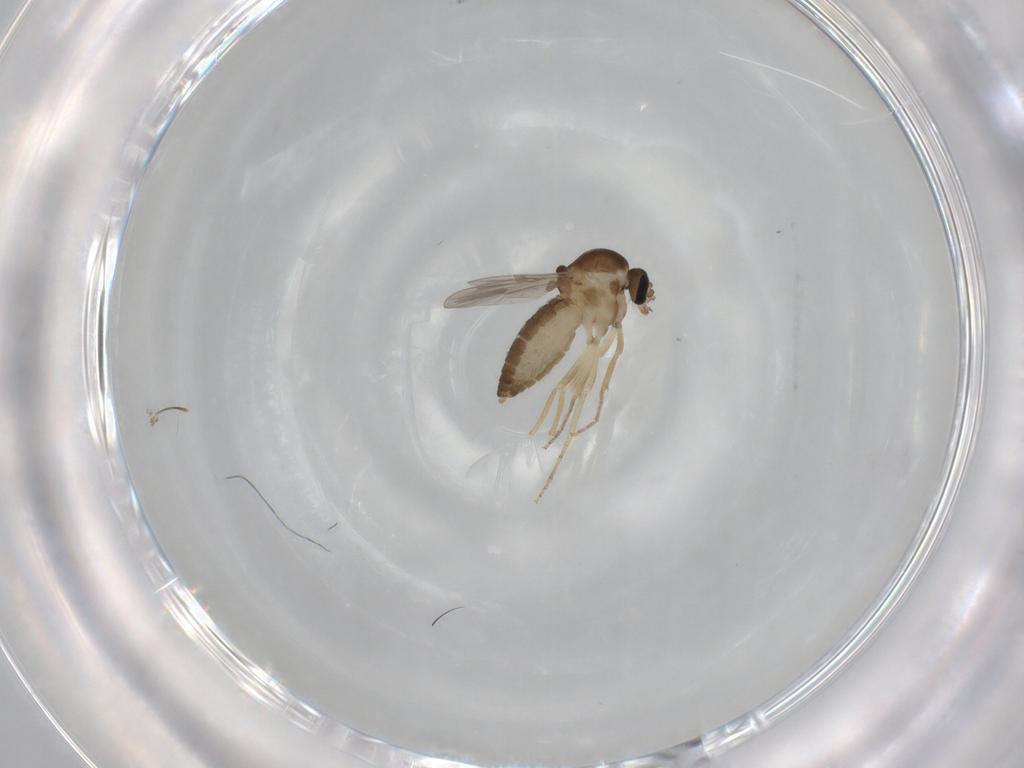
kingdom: Animalia
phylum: Arthropoda
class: Insecta
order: Diptera
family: Ceratopogonidae
